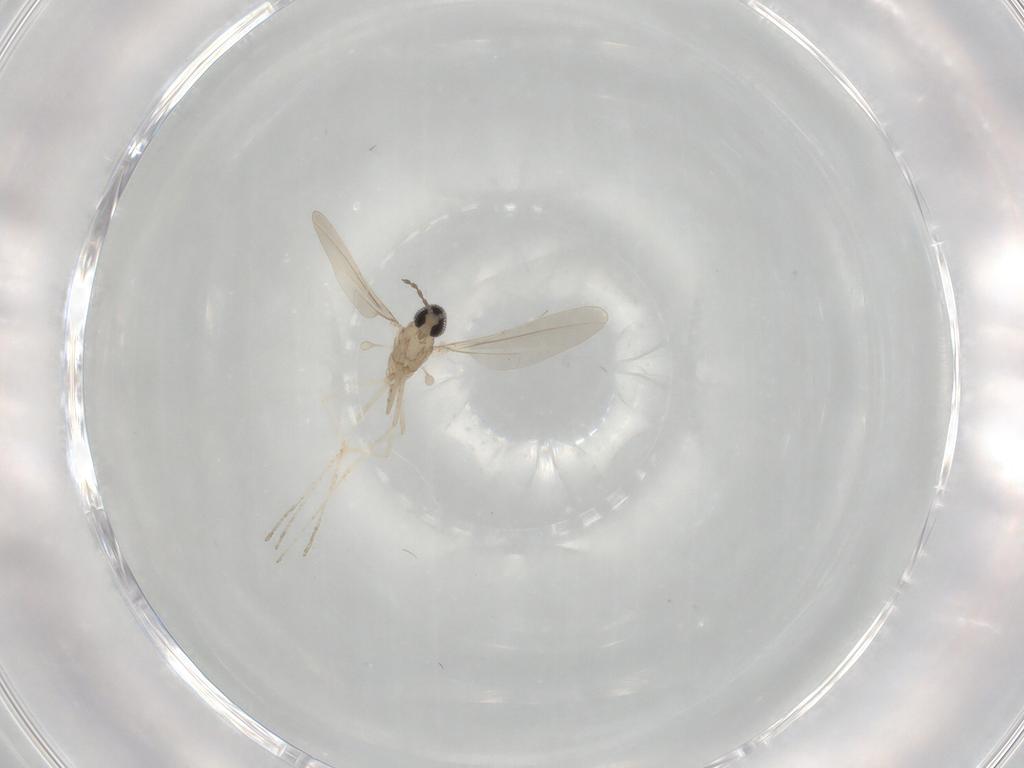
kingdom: Animalia
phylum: Arthropoda
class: Insecta
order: Diptera
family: Cecidomyiidae
